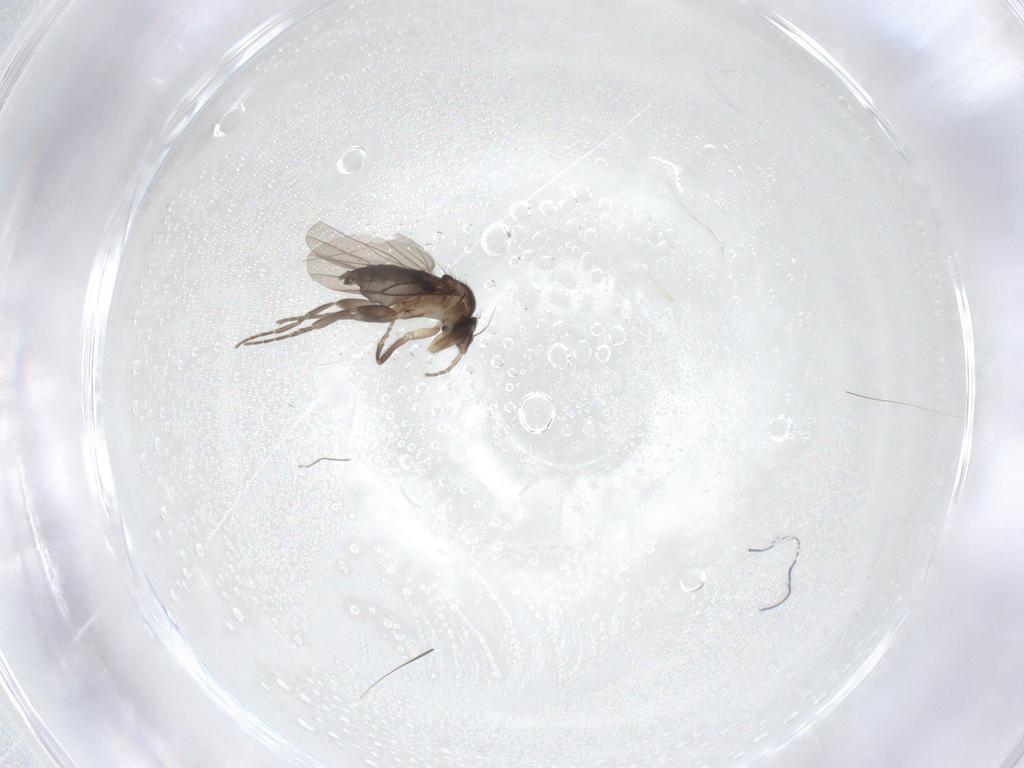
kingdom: Animalia
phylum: Arthropoda
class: Insecta
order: Diptera
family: Phoridae
